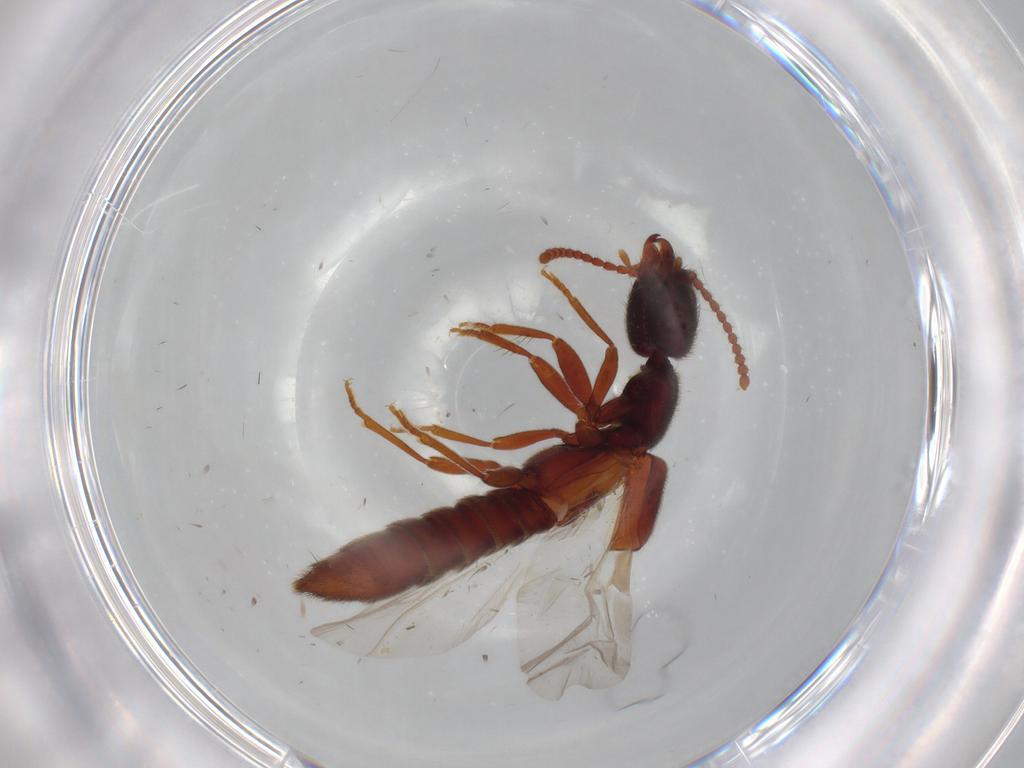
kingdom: Animalia
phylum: Arthropoda
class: Insecta
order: Coleoptera
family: Staphylinidae
